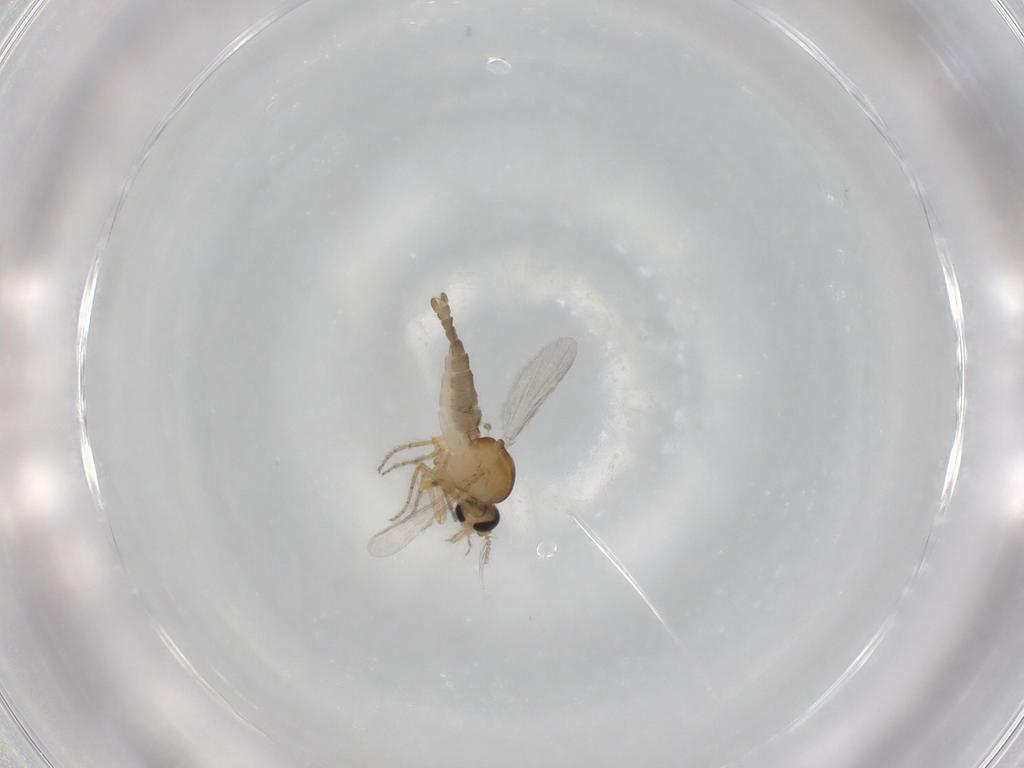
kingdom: Animalia
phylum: Arthropoda
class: Insecta
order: Diptera
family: Ceratopogonidae
